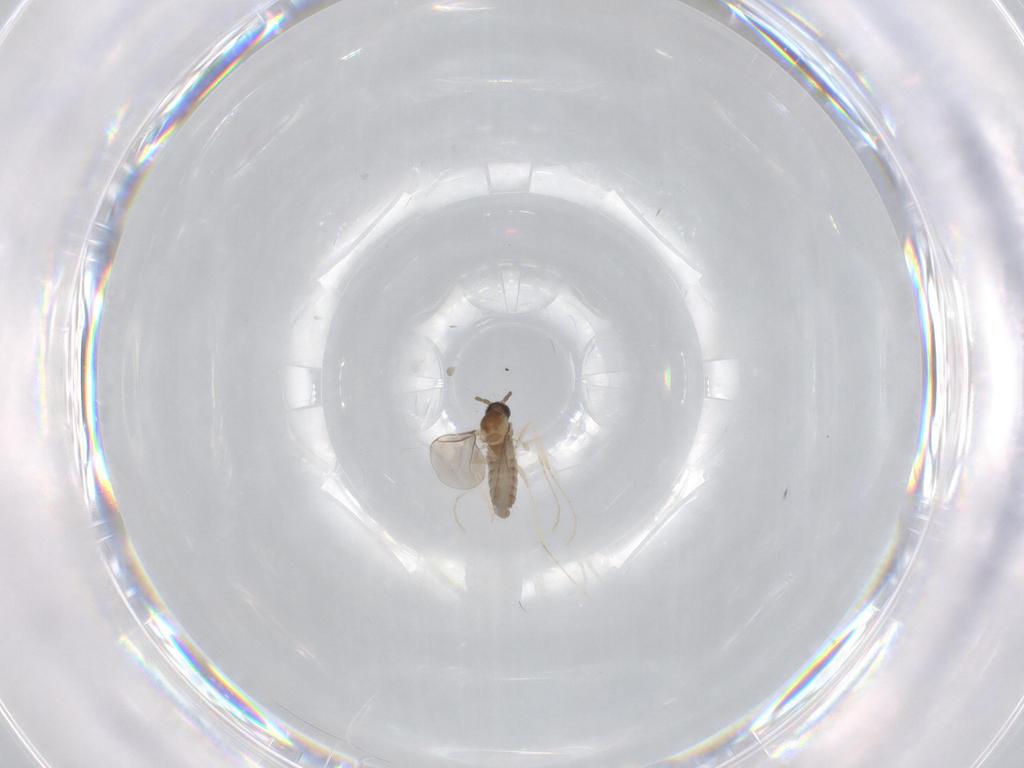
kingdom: Animalia
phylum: Arthropoda
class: Insecta
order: Diptera
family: Cecidomyiidae
